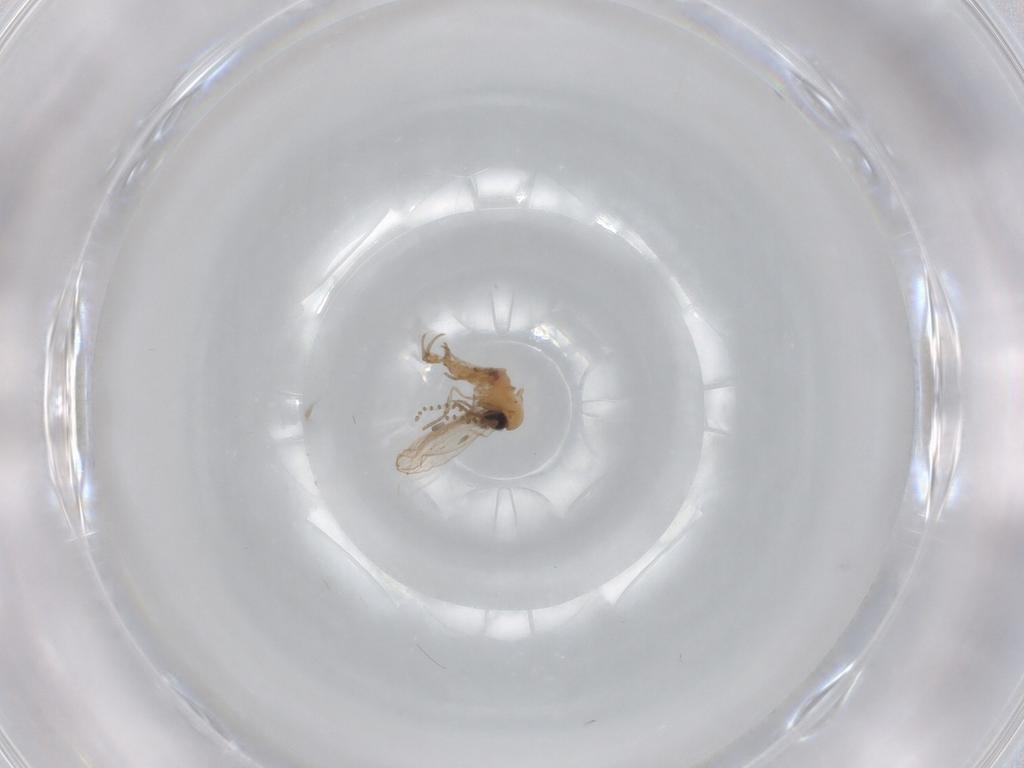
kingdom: Animalia
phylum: Arthropoda
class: Insecta
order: Diptera
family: Psychodidae
